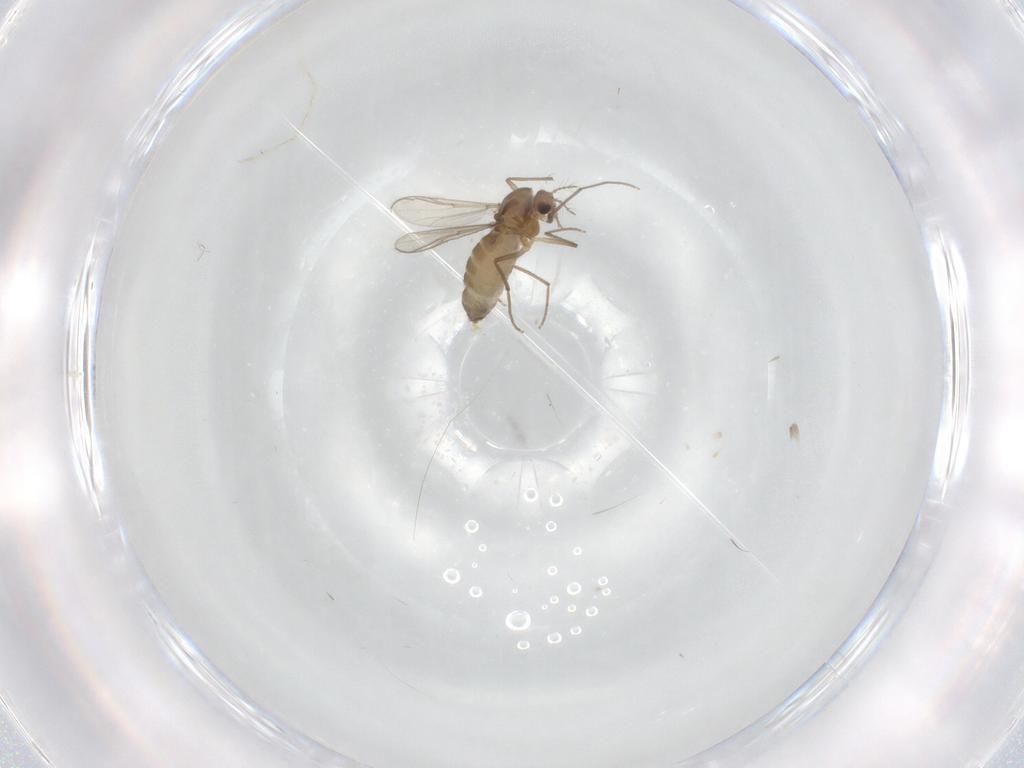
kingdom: Animalia
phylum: Arthropoda
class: Insecta
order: Diptera
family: Chironomidae
